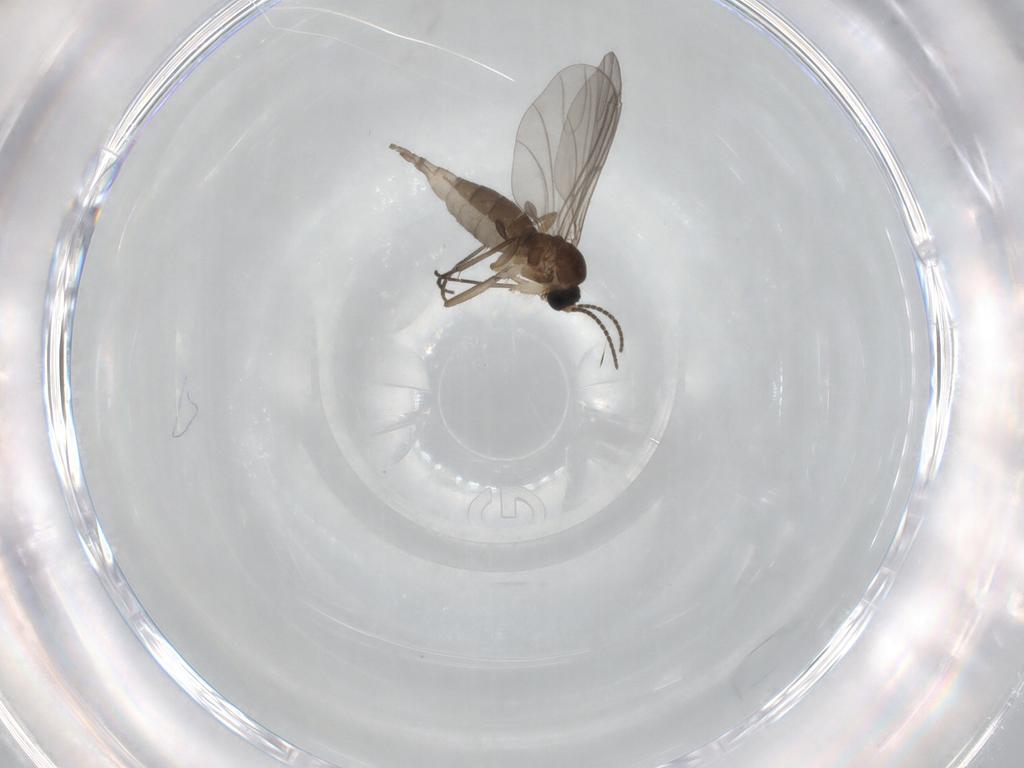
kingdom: Animalia
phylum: Arthropoda
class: Insecta
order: Diptera
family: Sciaridae
